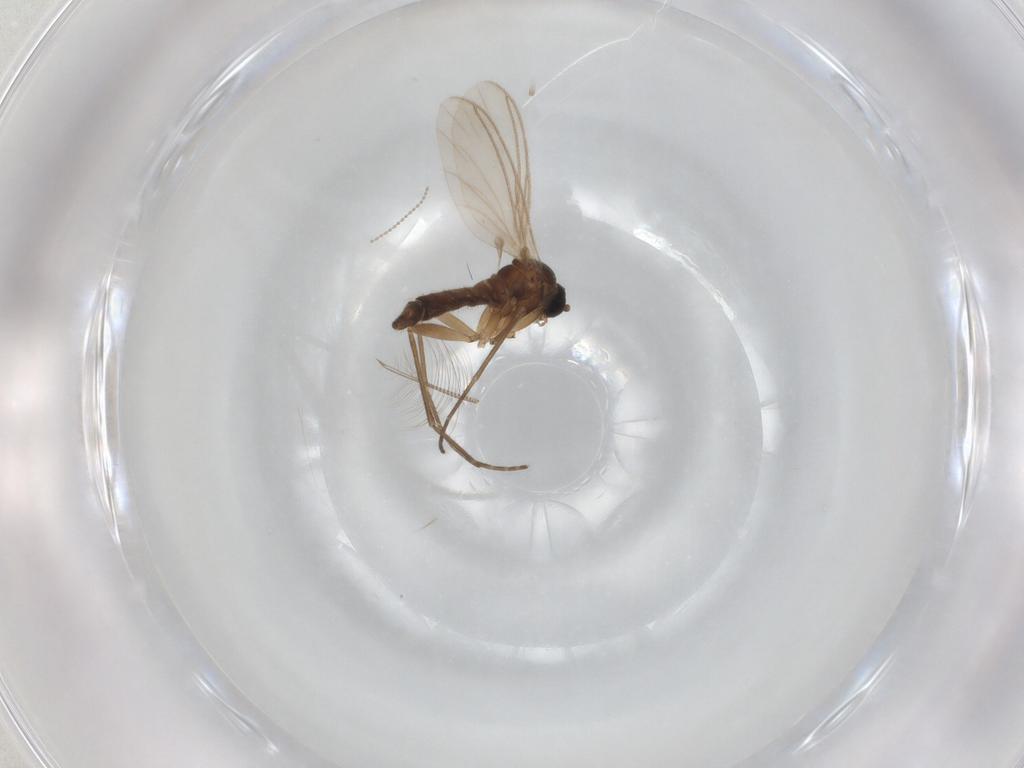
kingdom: Animalia
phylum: Arthropoda
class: Insecta
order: Diptera
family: Sciaridae
